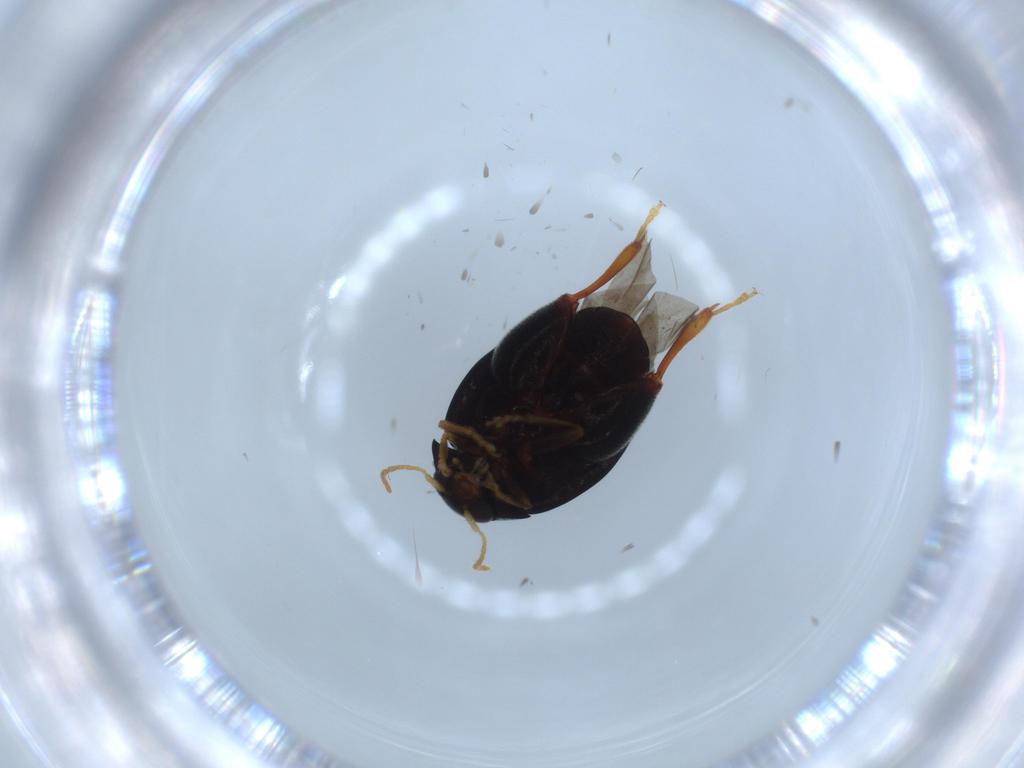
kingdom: Animalia
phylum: Arthropoda
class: Insecta
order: Coleoptera
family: Chrysomelidae
